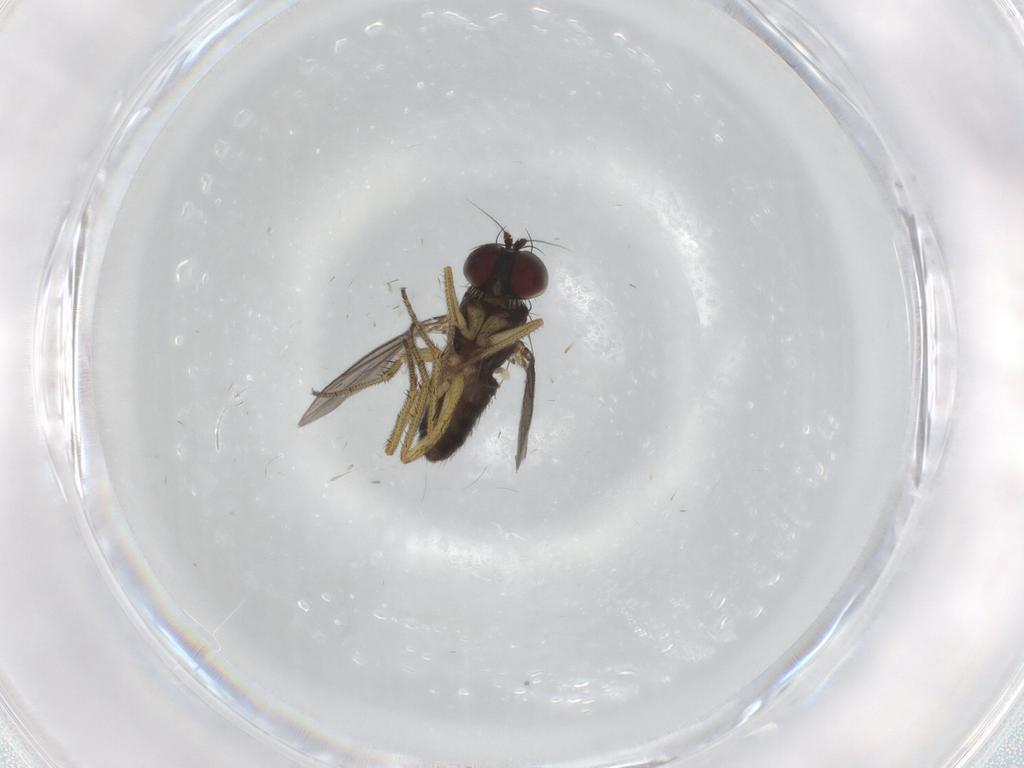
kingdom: Animalia
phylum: Arthropoda
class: Insecta
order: Diptera
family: Dolichopodidae
